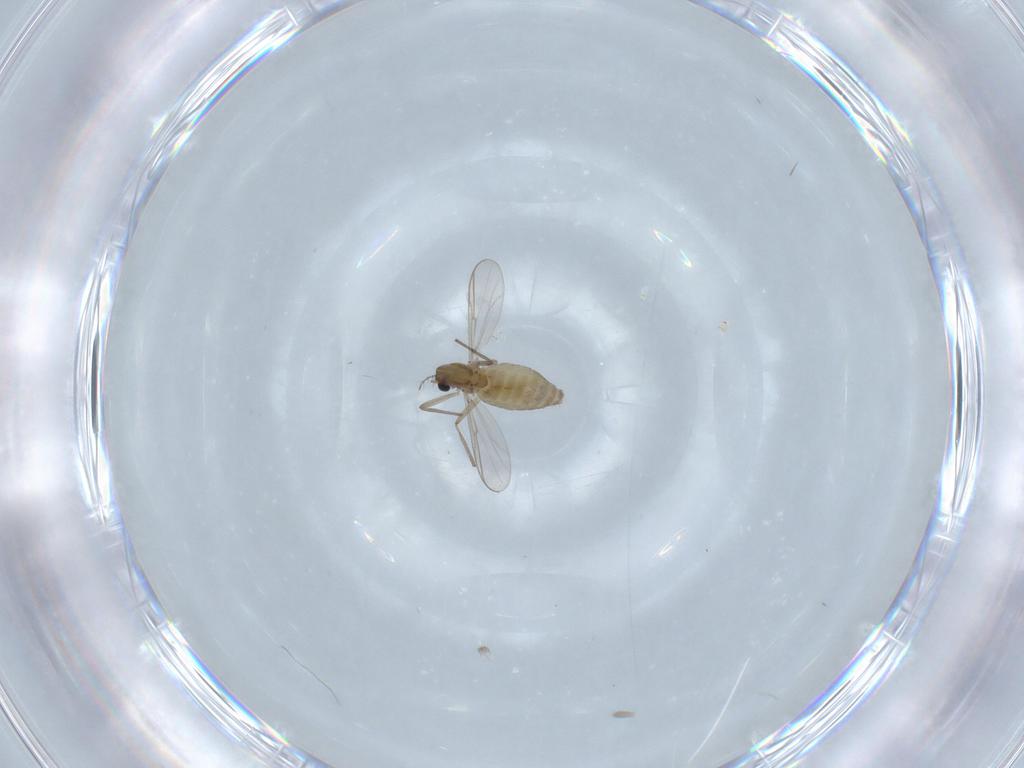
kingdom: Animalia
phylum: Arthropoda
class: Insecta
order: Diptera
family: Chironomidae
